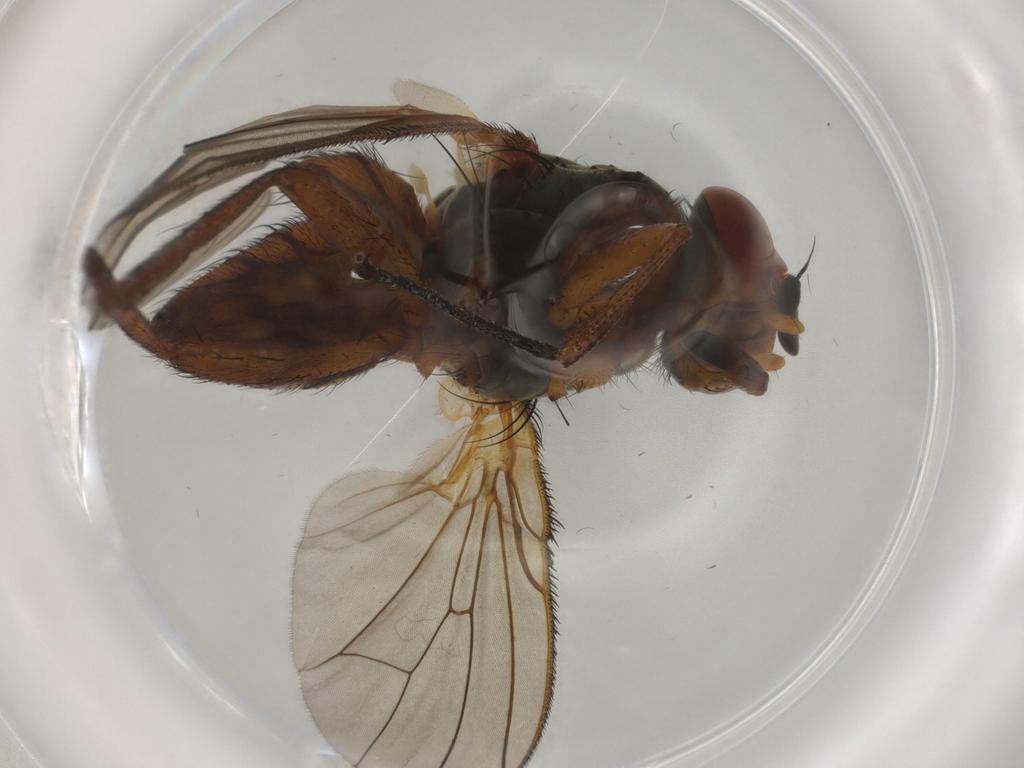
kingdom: Animalia
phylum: Arthropoda
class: Insecta
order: Diptera
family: Anthomyiidae
